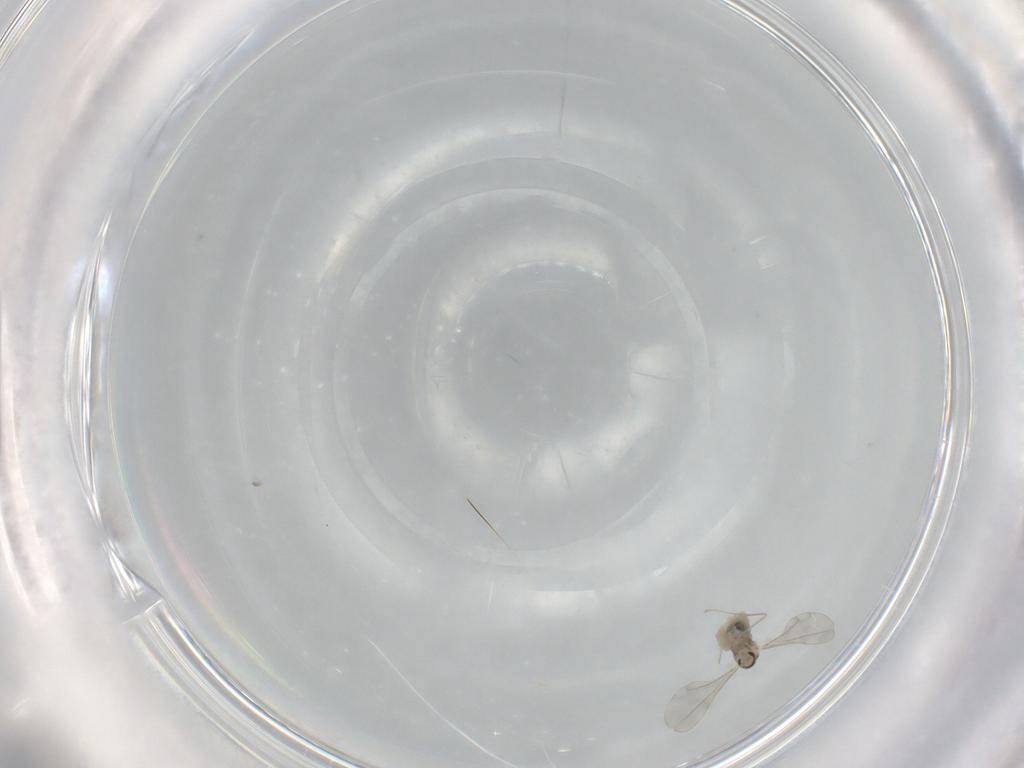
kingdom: Animalia
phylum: Arthropoda
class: Insecta
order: Diptera
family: Cecidomyiidae
